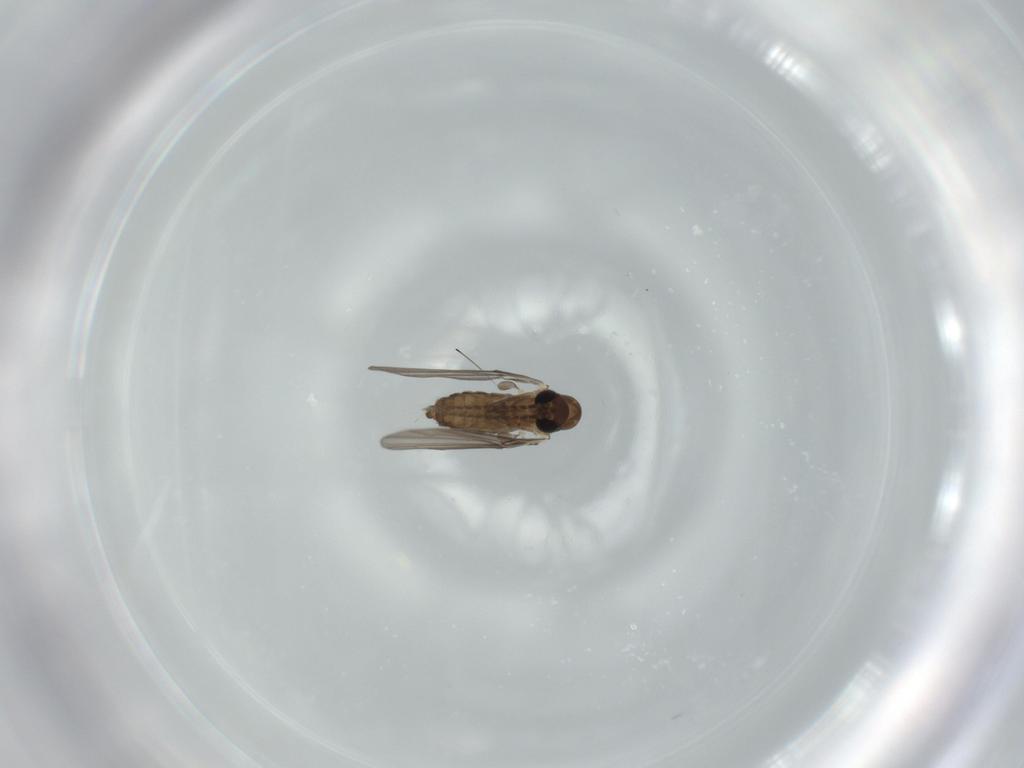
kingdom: Animalia
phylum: Arthropoda
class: Insecta
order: Diptera
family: Psychodidae
